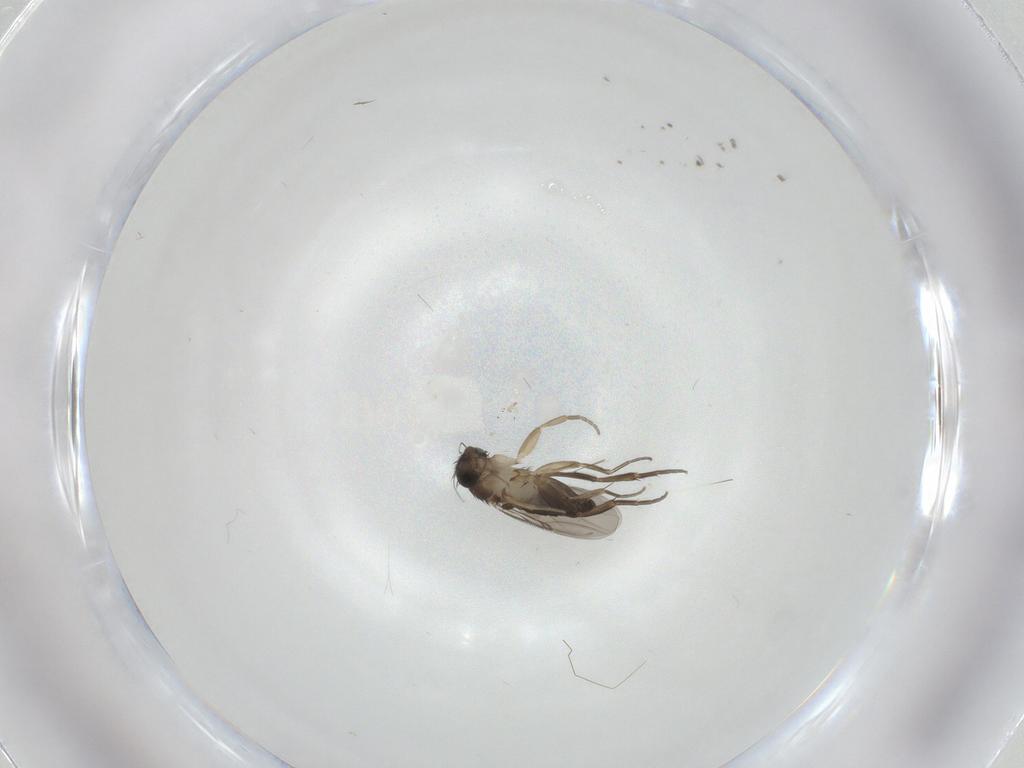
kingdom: Animalia
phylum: Arthropoda
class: Insecta
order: Diptera
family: Phoridae
